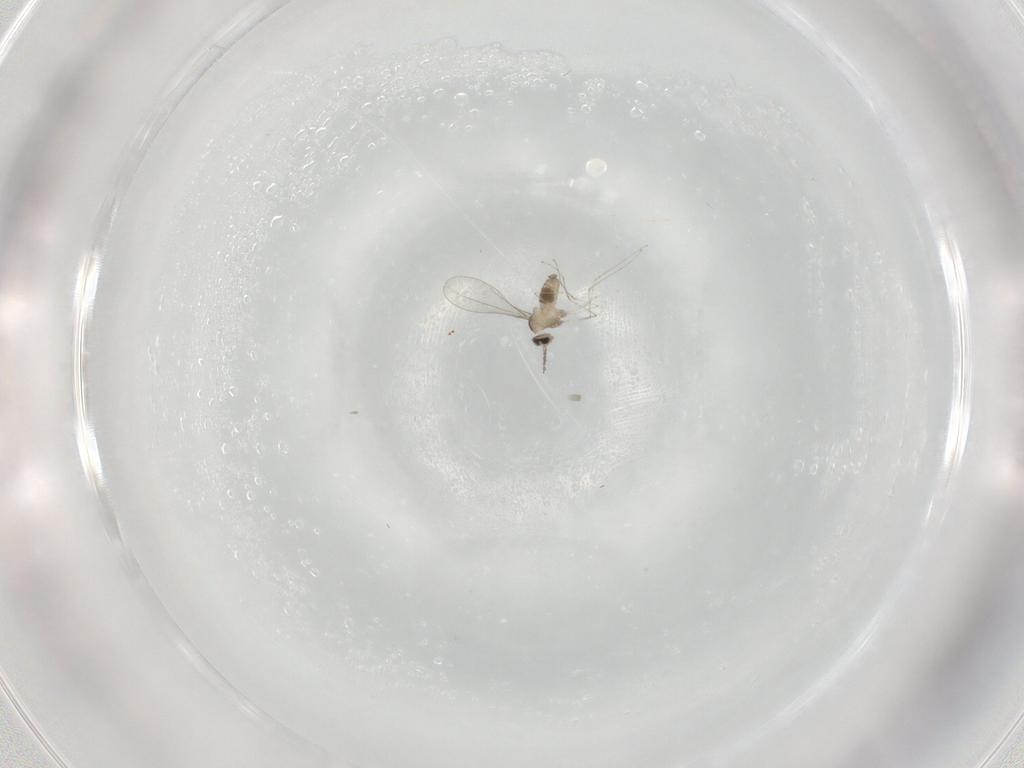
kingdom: Animalia
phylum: Arthropoda
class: Insecta
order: Diptera
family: Cecidomyiidae
